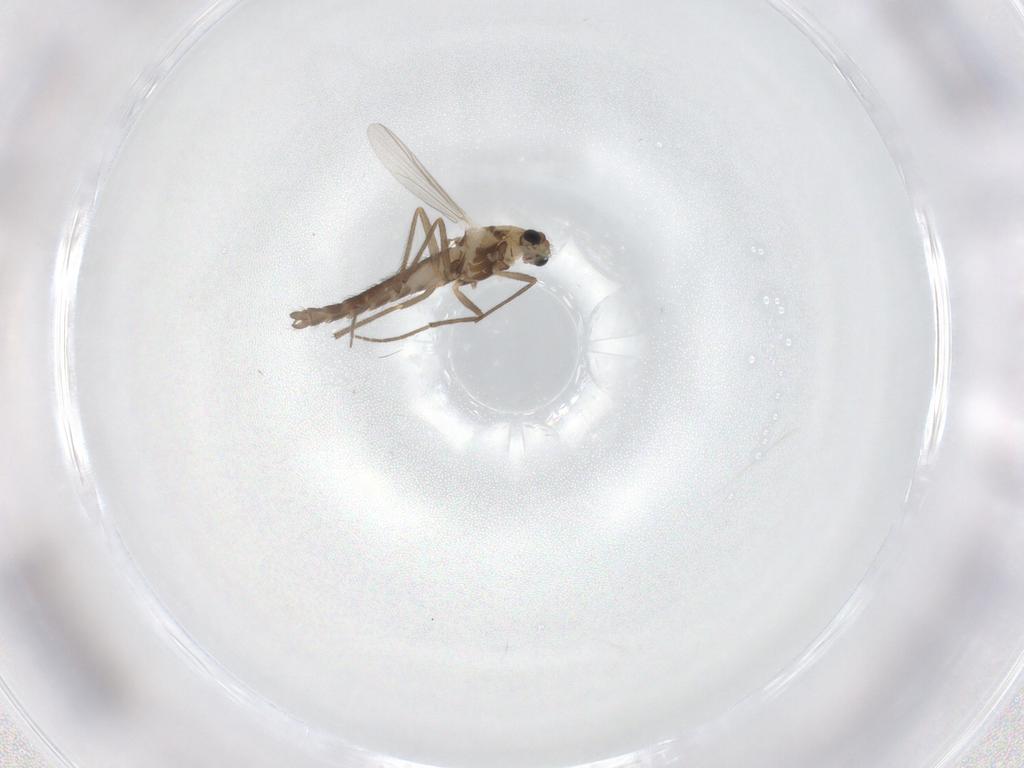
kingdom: Animalia
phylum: Arthropoda
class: Insecta
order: Diptera
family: Chironomidae
